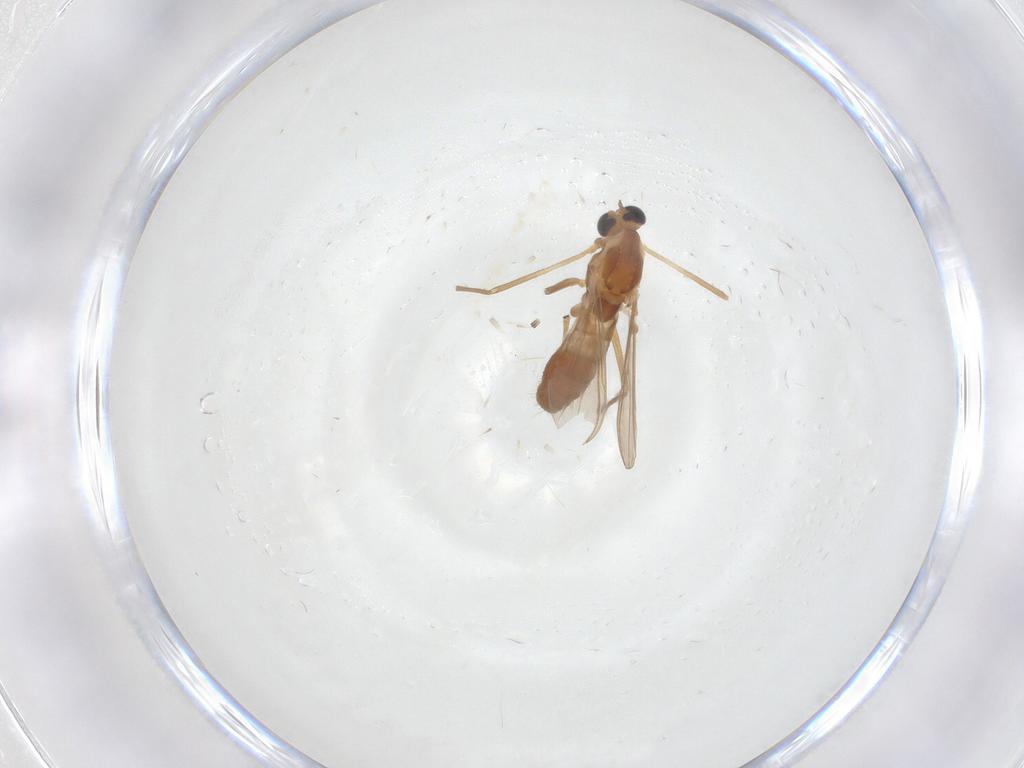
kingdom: Animalia
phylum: Arthropoda
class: Insecta
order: Diptera
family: Chironomidae
